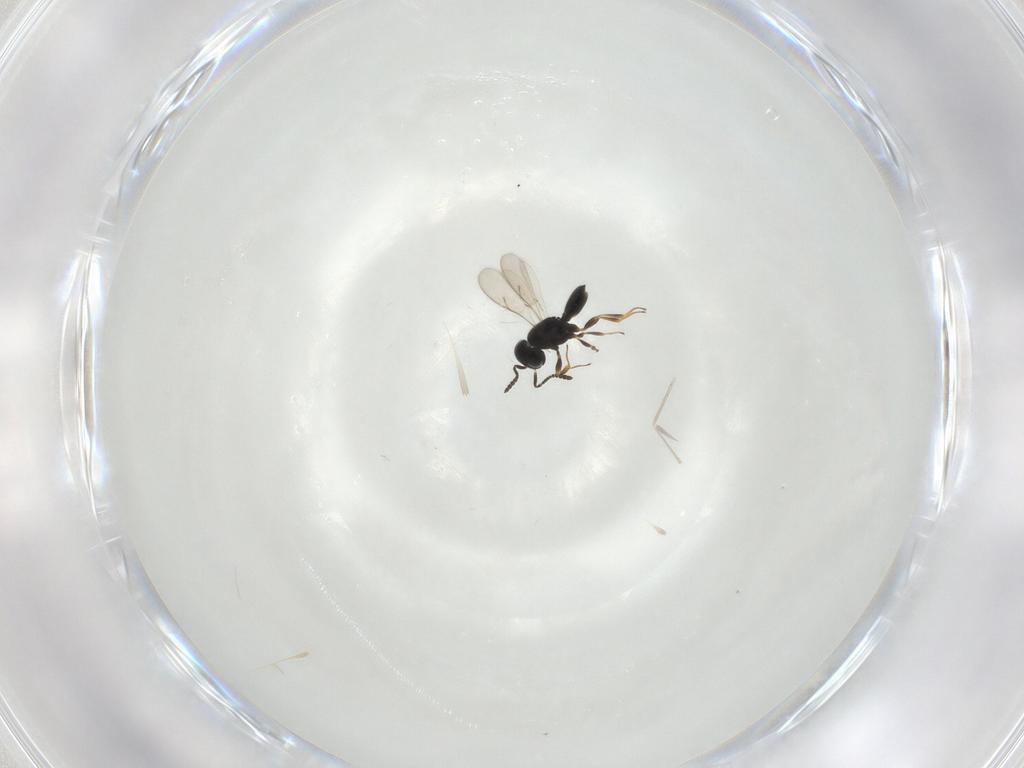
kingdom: Animalia
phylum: Arthropoda
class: Insecta
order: Hymenoptera
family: Scelionidae
